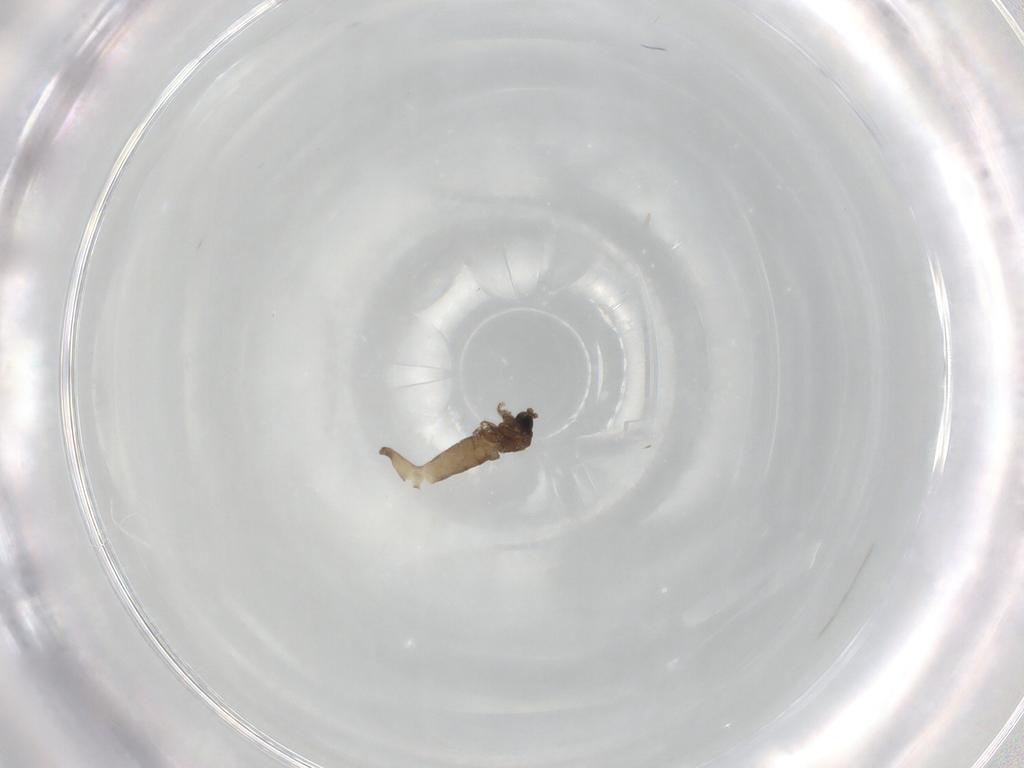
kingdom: Animalia
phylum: Arthropoda
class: Insecta
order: Diptera
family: Sciaridae
